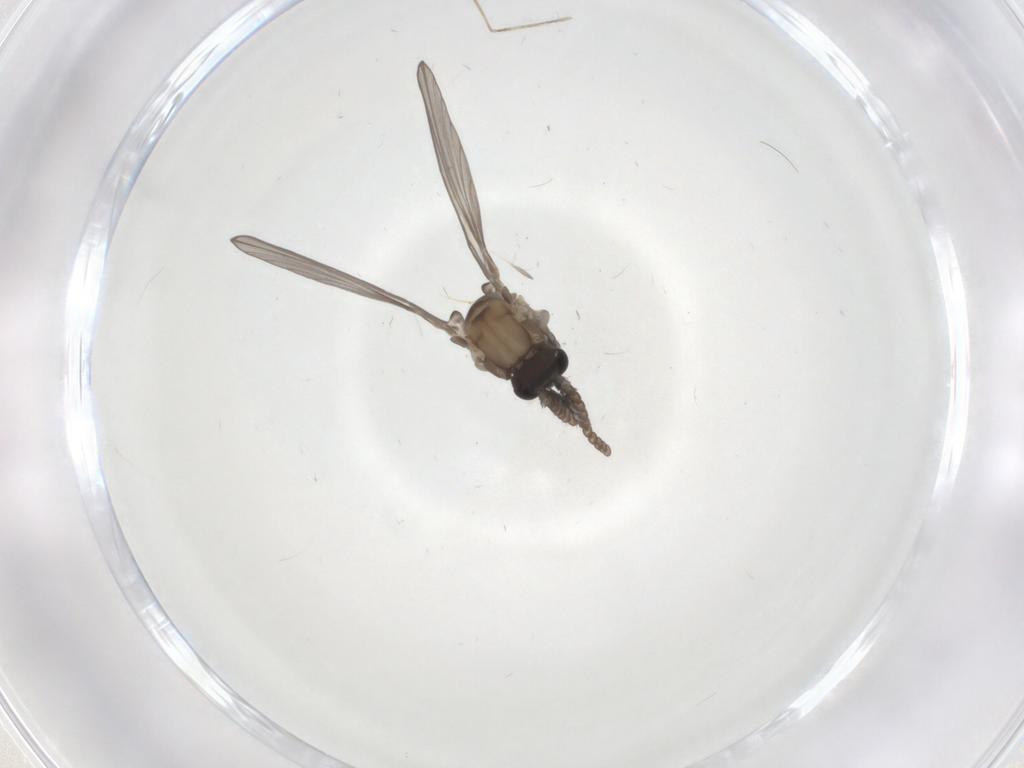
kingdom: Animalia
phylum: Arthropoda
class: Insecta
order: Diptera
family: Psychodidae
